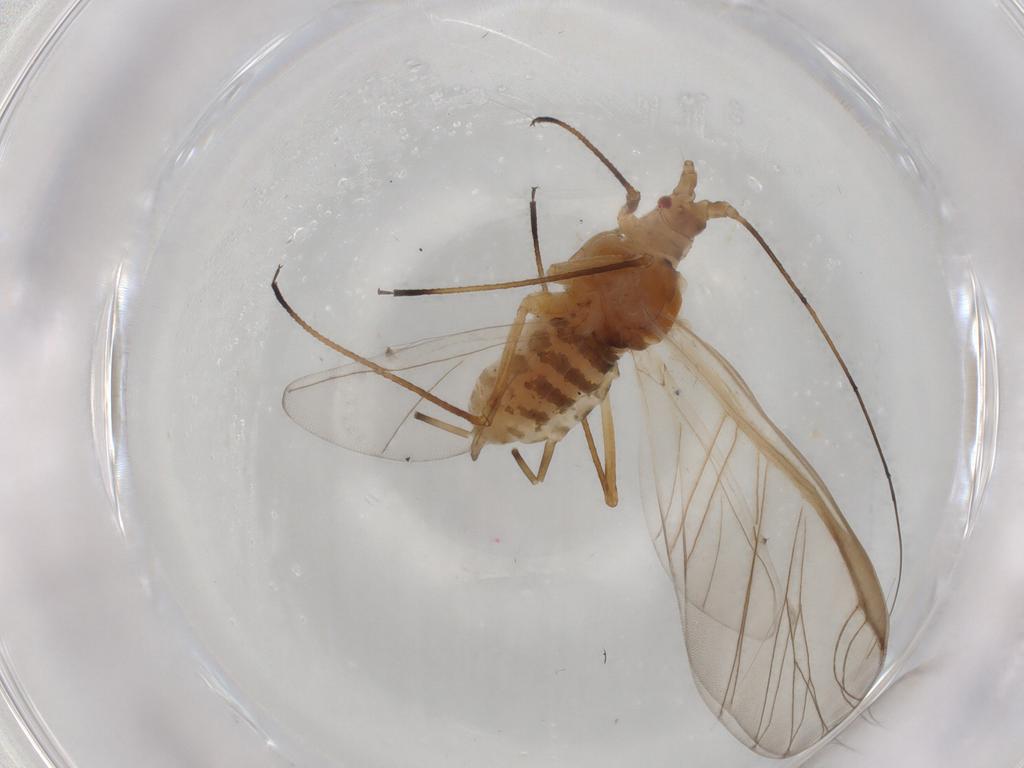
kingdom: Animalia
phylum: Arthropoda
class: Insecta
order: Hemiptera
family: Aphididae
